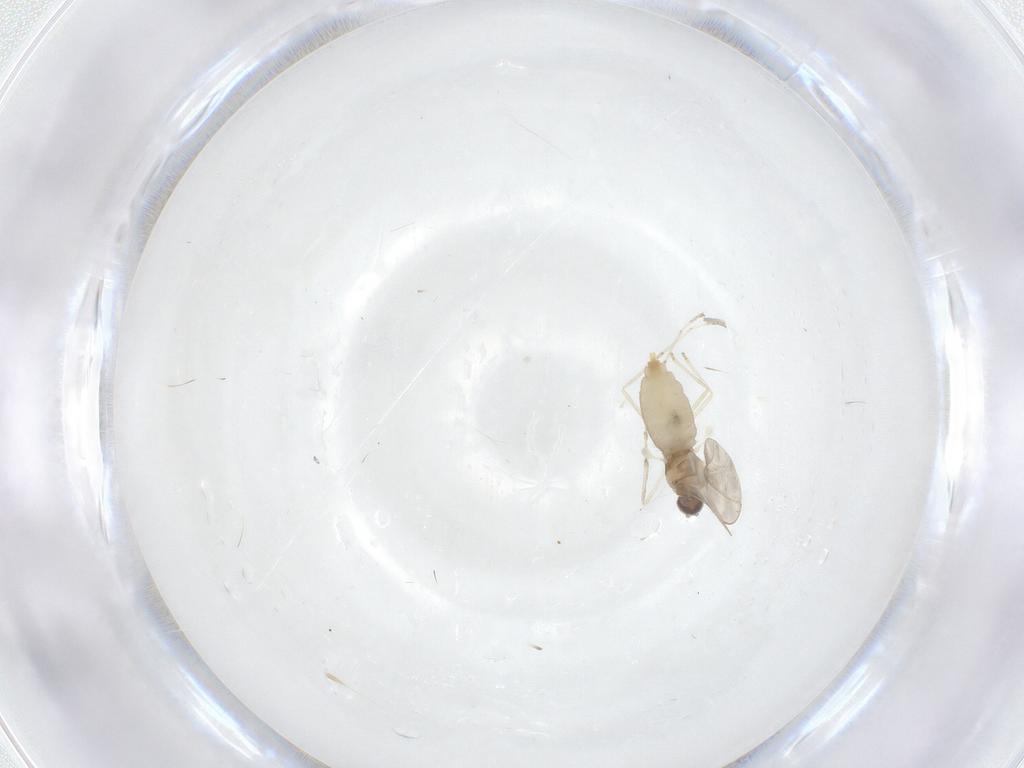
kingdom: Animalia
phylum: Arthropoda
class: Insecta
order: Diptera
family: Cecidomyiidae
